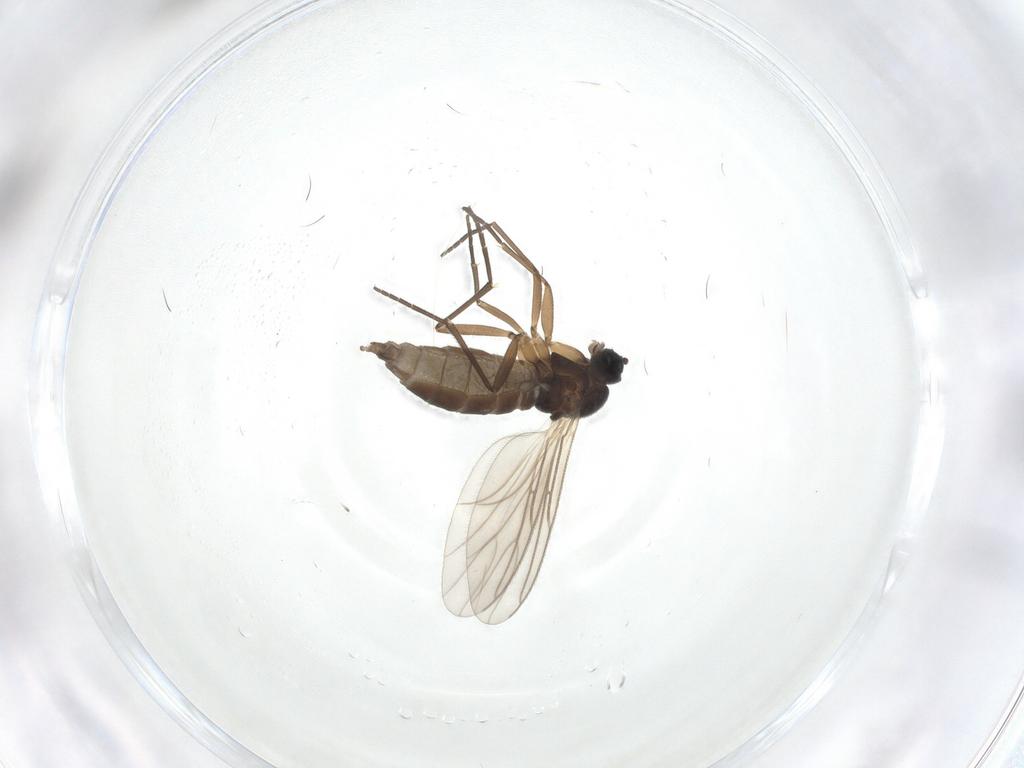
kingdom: Animalia
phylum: Arthropoda
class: Insecta
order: Diptera
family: Sciaridae
